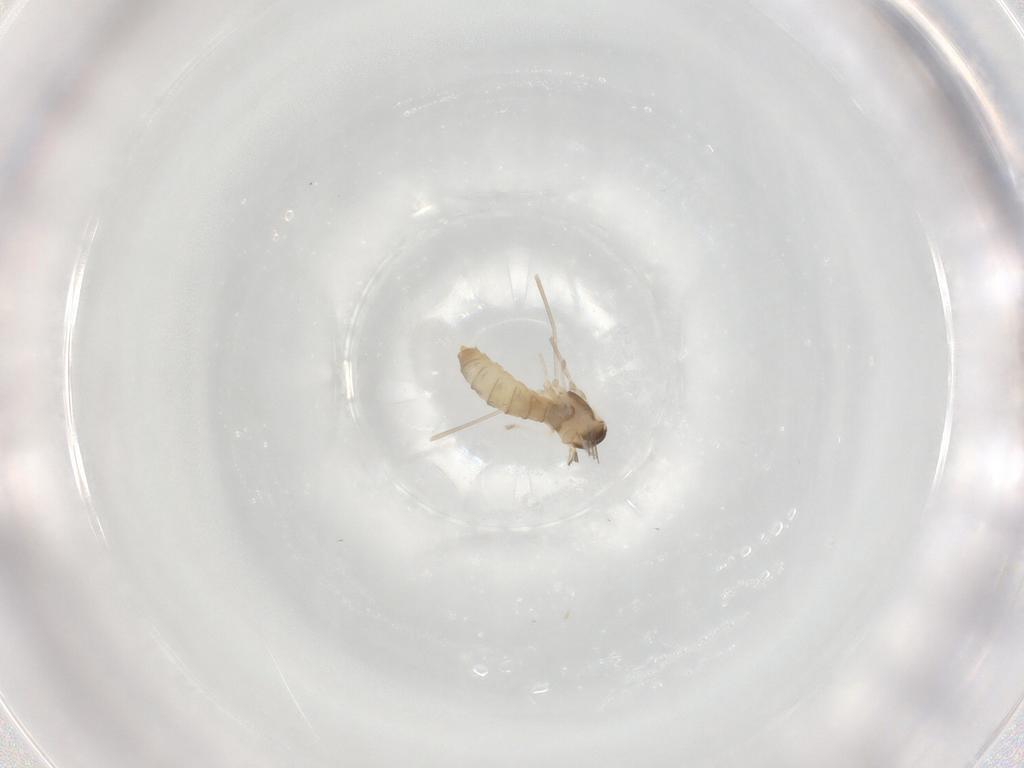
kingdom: Animalia
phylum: Arthropoda
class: Insecta
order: Diptera
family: Cecidomyiidae
